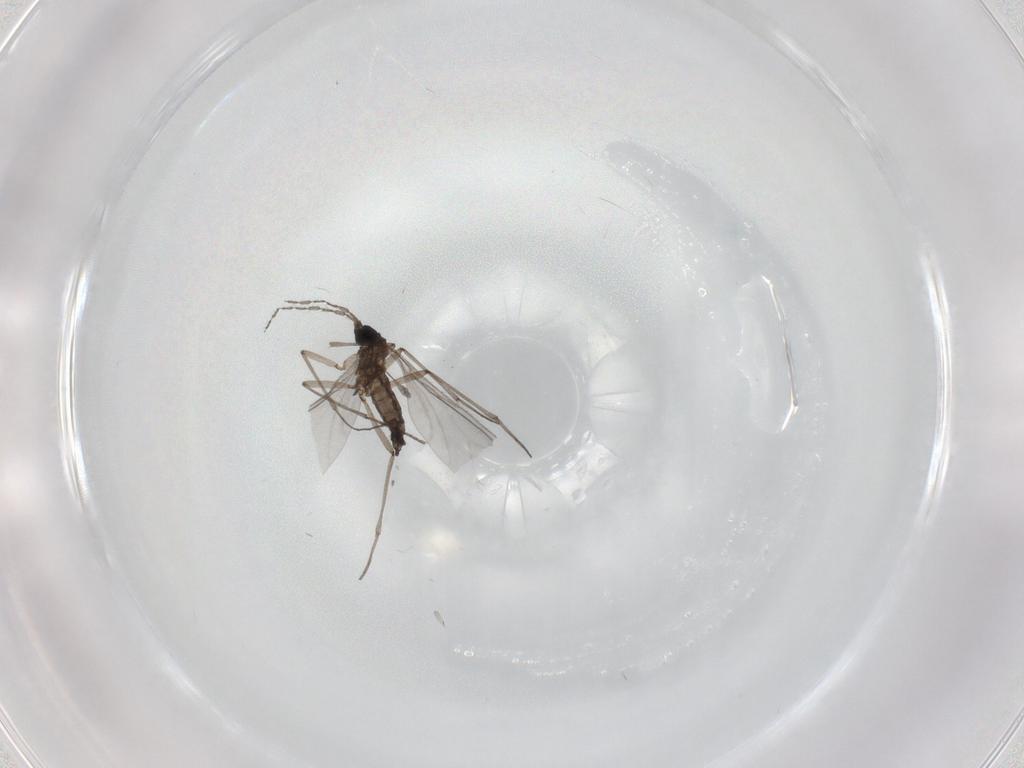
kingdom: Animalia
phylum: Arthropoda
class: Insecta
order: Diptera
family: Sciaridae
